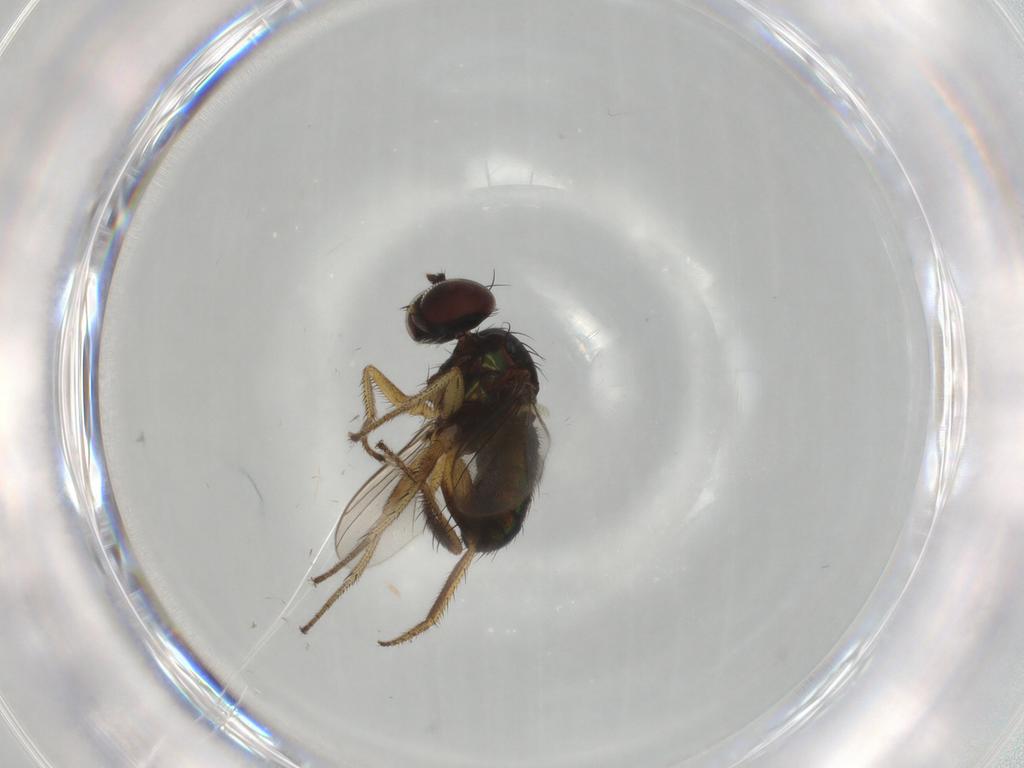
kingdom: Animalia
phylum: Arthropoda
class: Insecta
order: Diptera
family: Dolichopodidae
